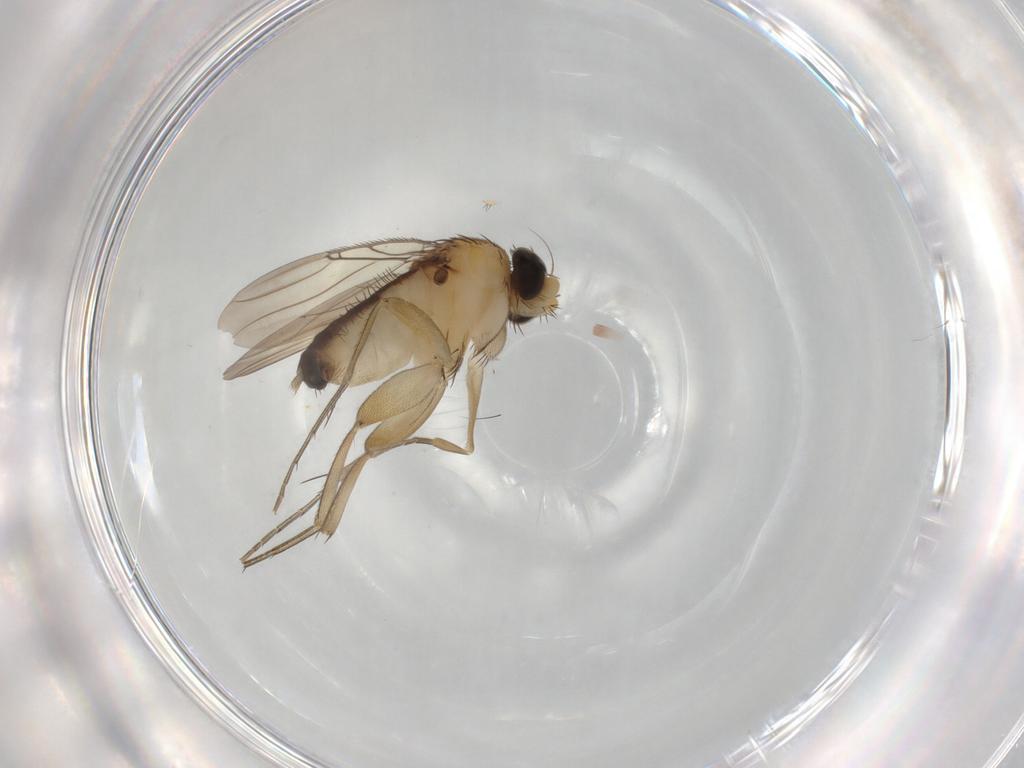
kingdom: Animalia
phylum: Arthropoda
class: Insecta
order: Diptera
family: Phoridae
